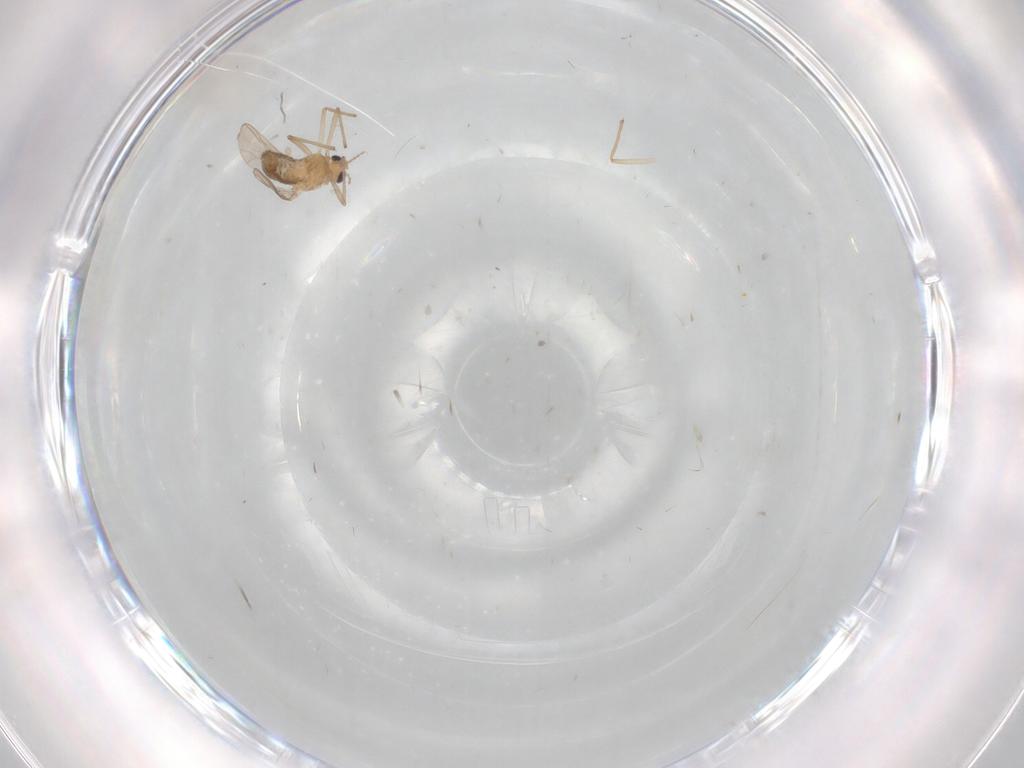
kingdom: Animalia
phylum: Arthropoda
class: Insecta
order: Diptera
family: Chironomidae
